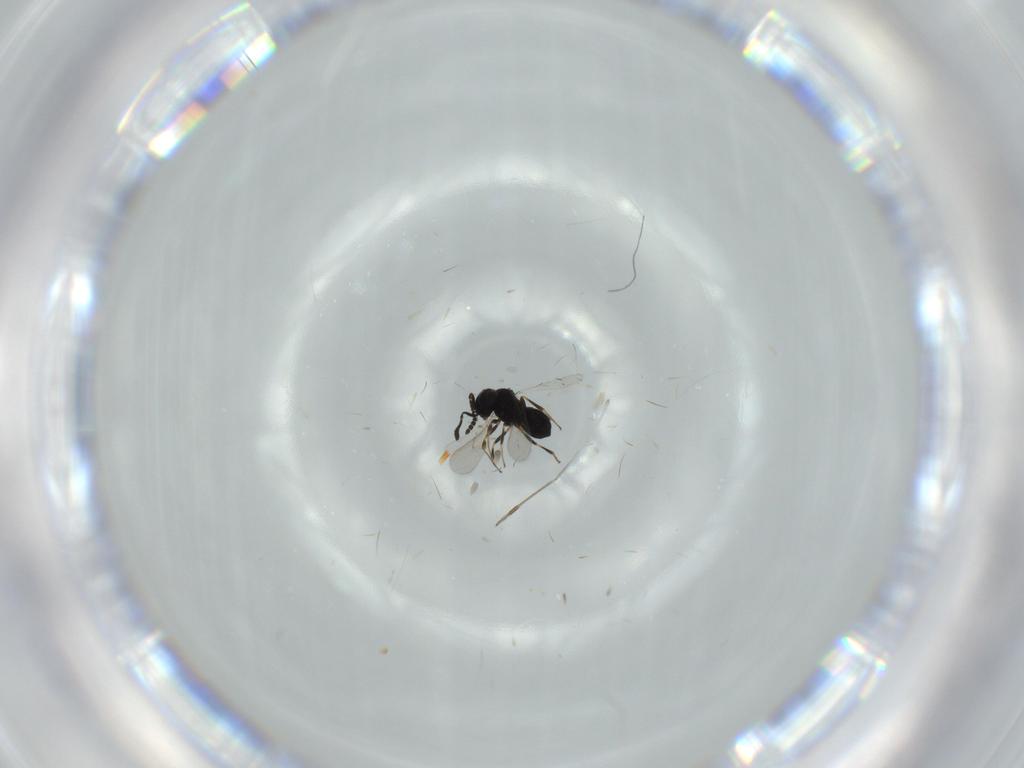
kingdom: Animalia
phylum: Arthropoda
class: Insecta
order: Hymenoptera
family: Scelionidae
